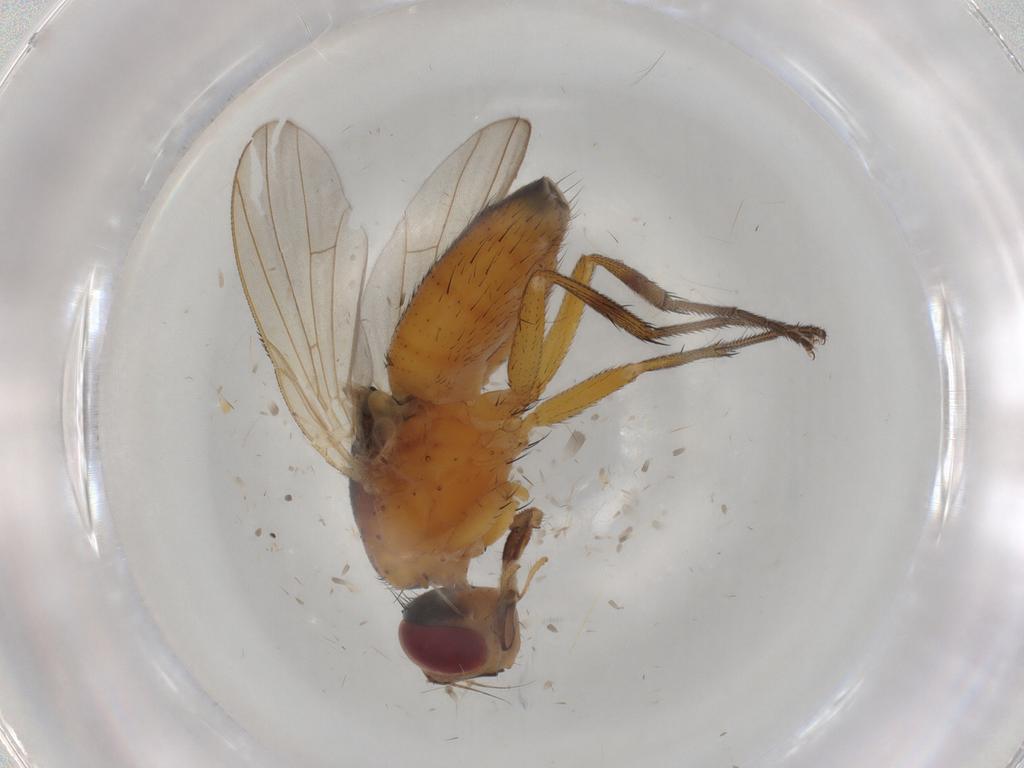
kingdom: Animalia
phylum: Arthropoda
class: Insecta
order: Diptera
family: Muscidae
